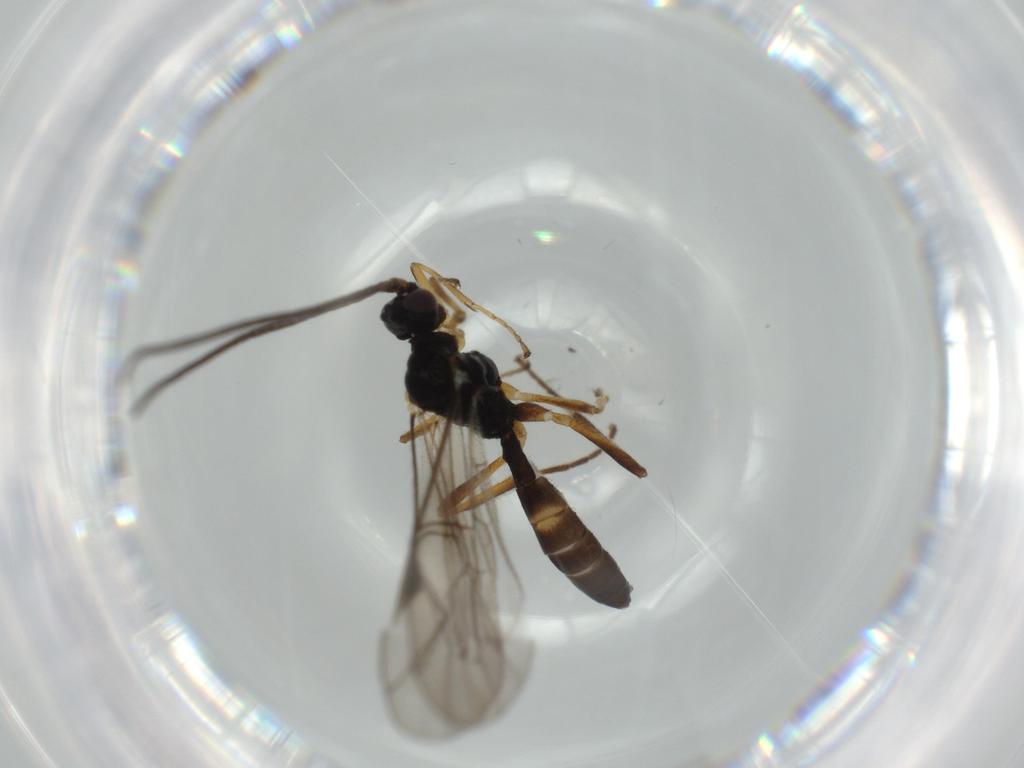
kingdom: Animalia
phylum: Arthropoda
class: Insecta
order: Hymenoptera
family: Ichneumonidae
